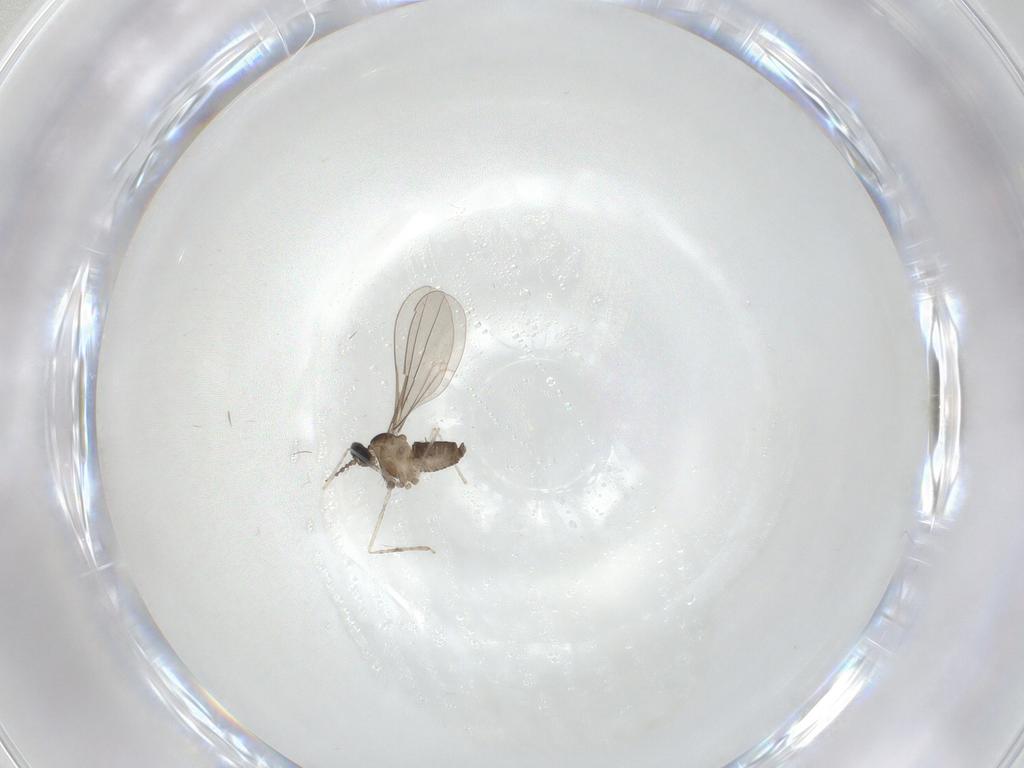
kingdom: Animalia
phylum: Arthropoda
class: Insecta
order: Diptera
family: Cecidomyiidae
